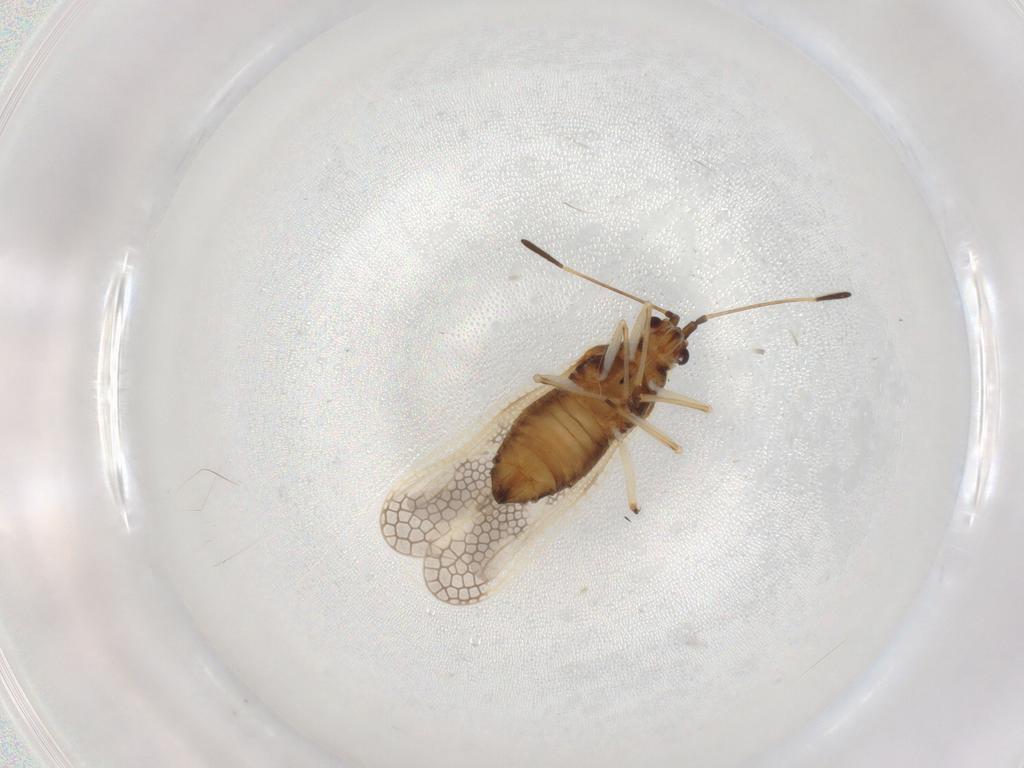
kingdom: Animalia
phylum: Arthropoda
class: Insecta
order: Hemiptera
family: Tingidae
